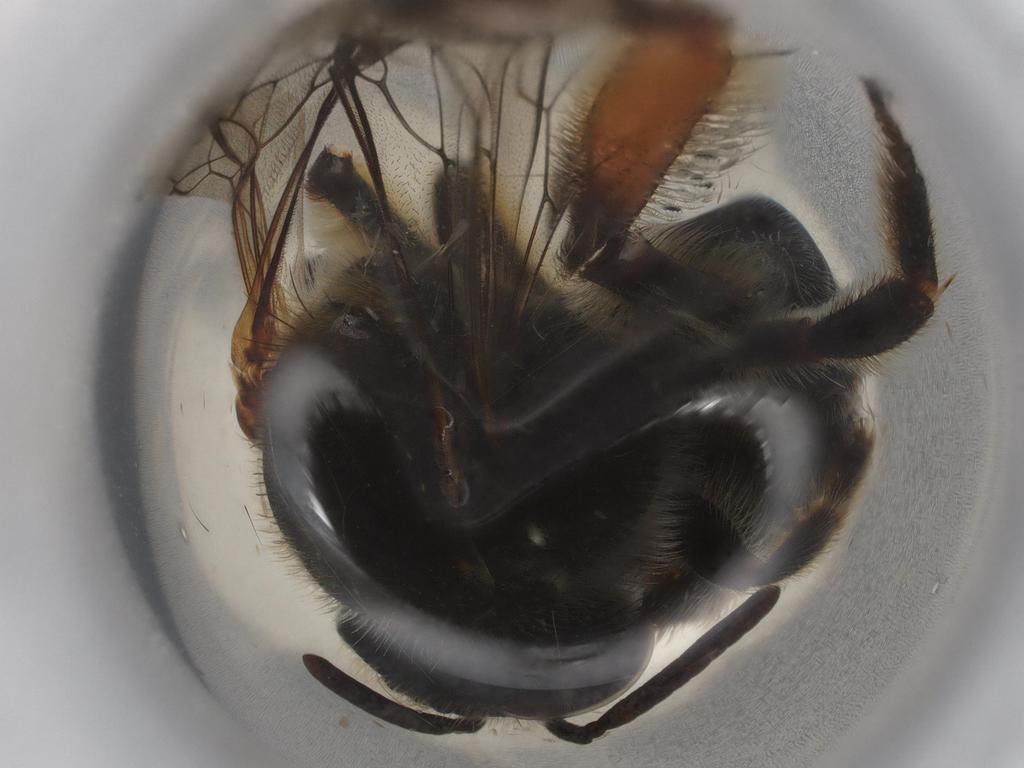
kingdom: Animalia
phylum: Arthropoda
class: Insecta
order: Hymenoptera
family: Halictidae
